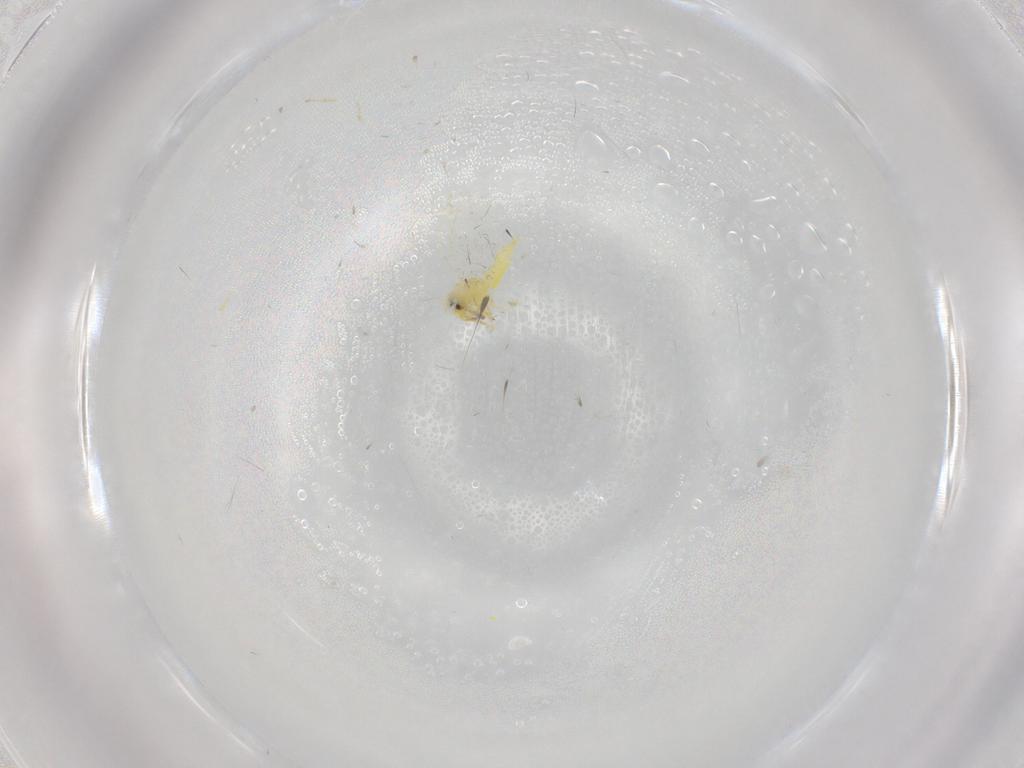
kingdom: Animalia
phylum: Arthropoda
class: Insecta
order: Hemiptera
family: Aleyrodidae
